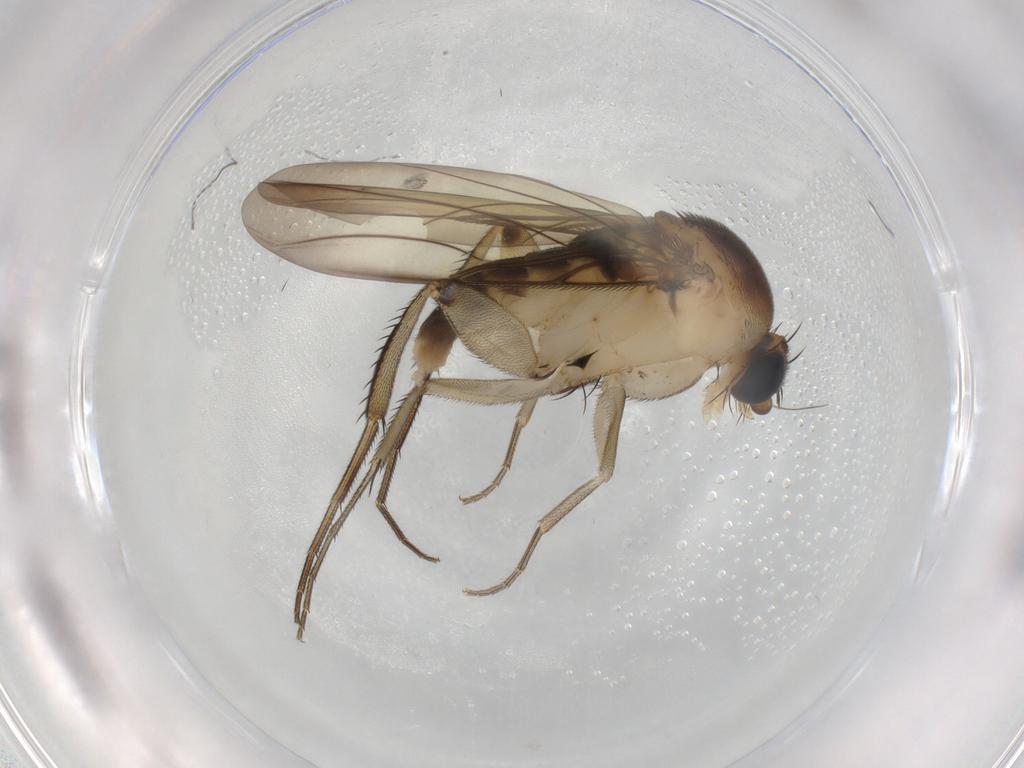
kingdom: Animalia
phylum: Arthropoda
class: Insecta
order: Diptera
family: Phoridae
